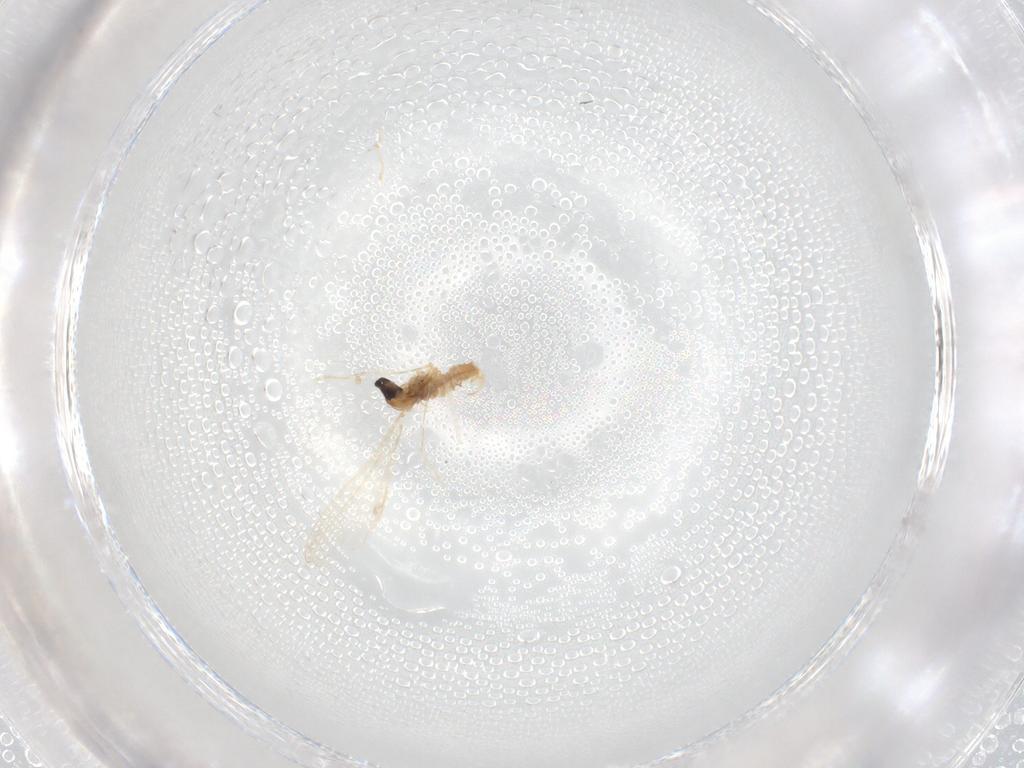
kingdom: Animalia
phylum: Arthropoda
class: Insecta
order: Diptera
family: Cecidomyiidae
